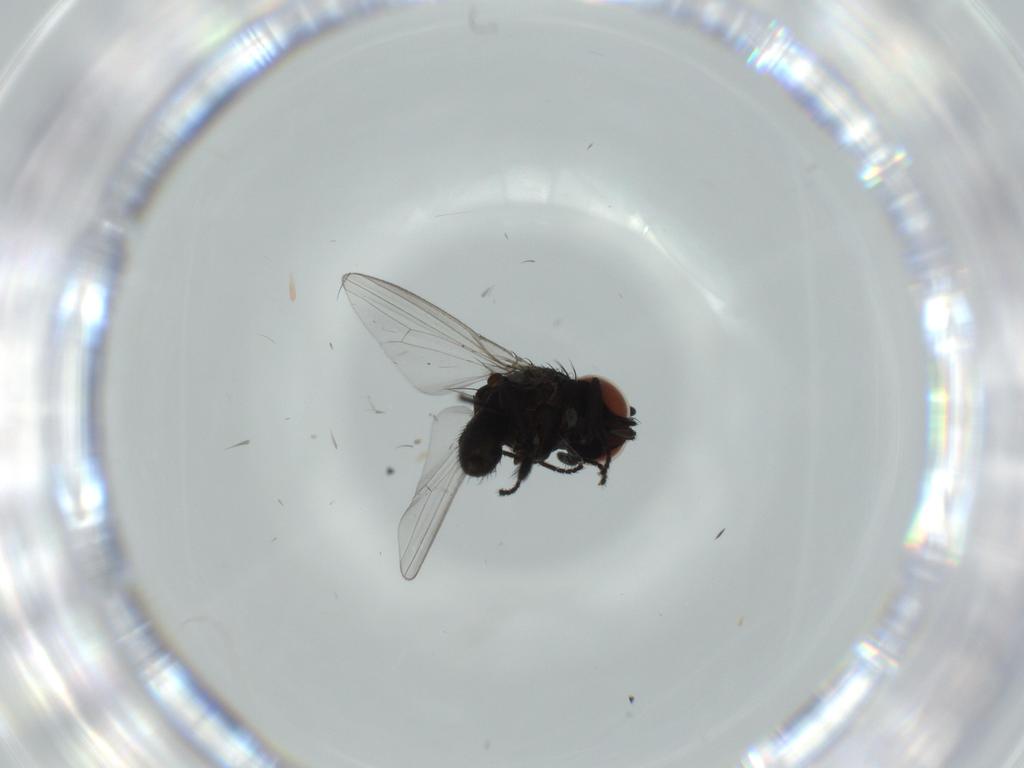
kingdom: Animalia
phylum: Arthropoda
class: Insecta
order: Diptera
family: Milichiidae
